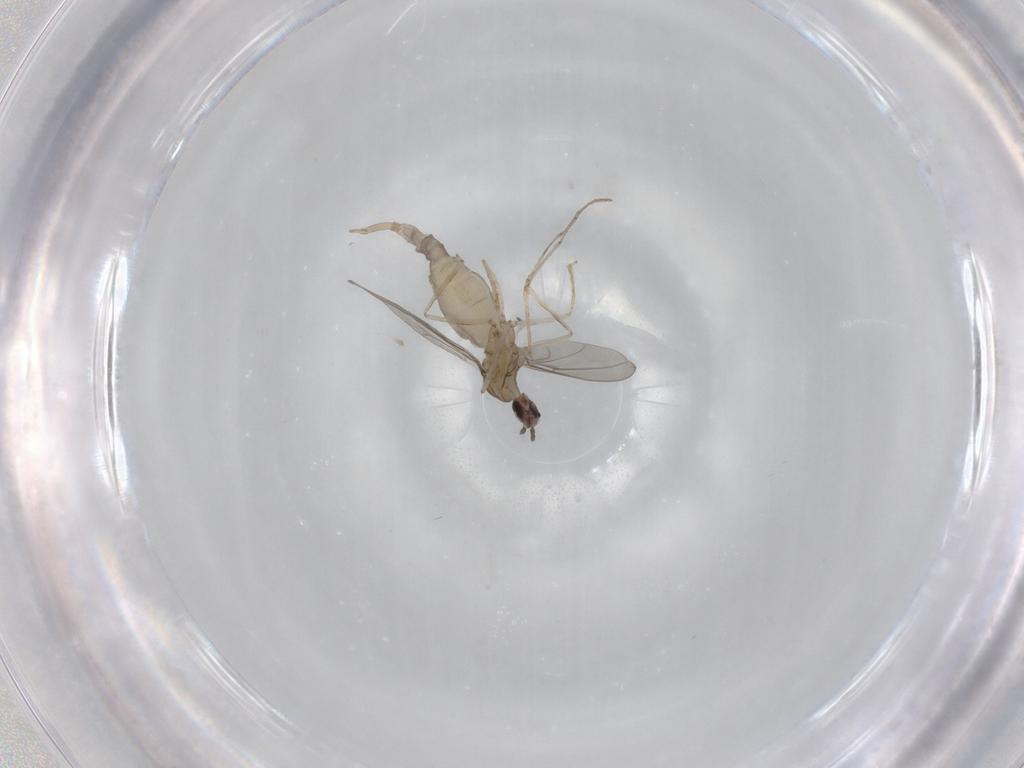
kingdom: Animalia
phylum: Arthropoda
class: Insecta
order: Diptera
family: Cecidomyiidae
